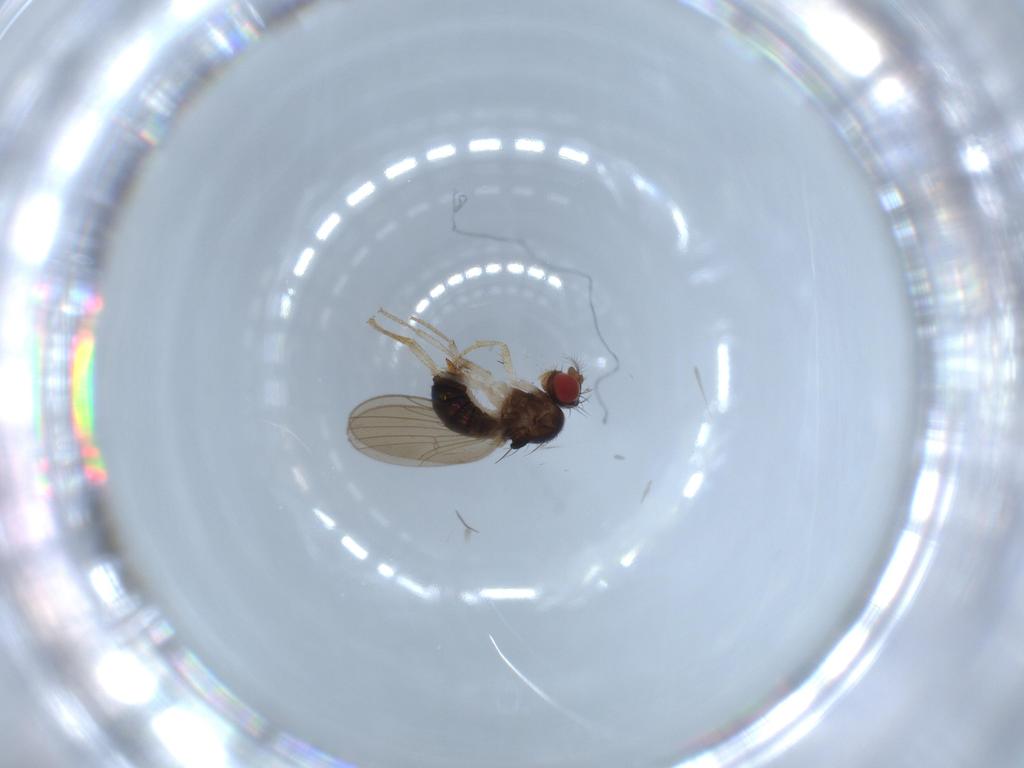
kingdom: Animalia
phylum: Arthropoda
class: Insecta
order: Diptera
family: Drosophilidae
